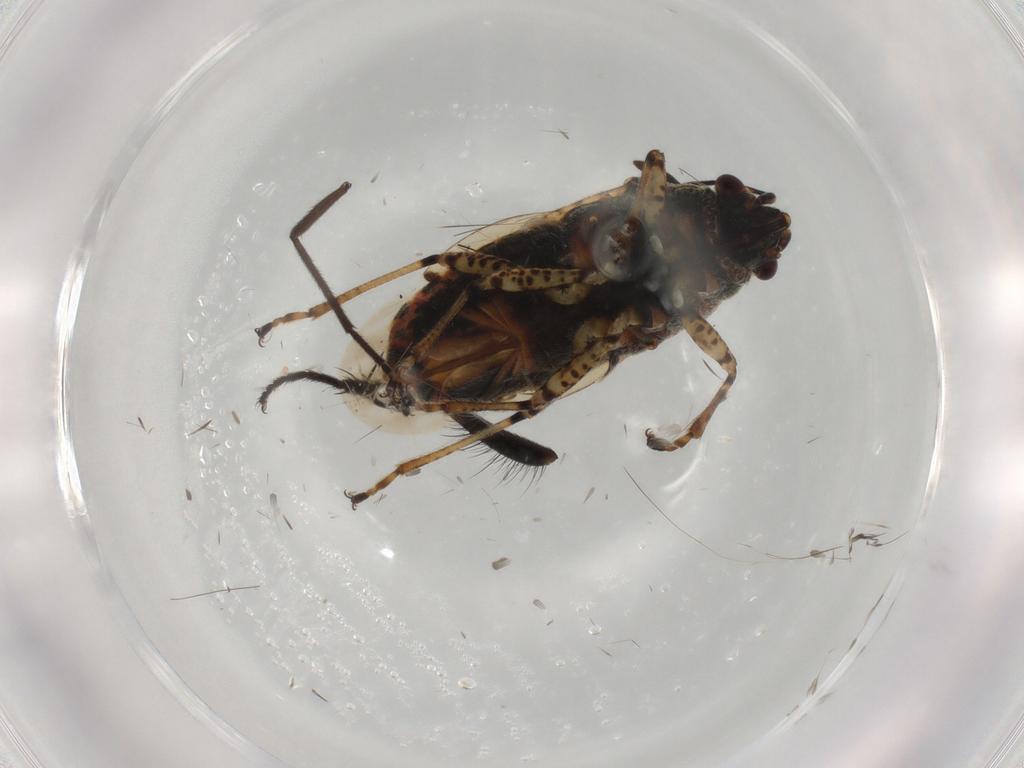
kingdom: Animalia
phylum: Arthropoda
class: Insecta
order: Hemiptera
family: Lygaeidae
